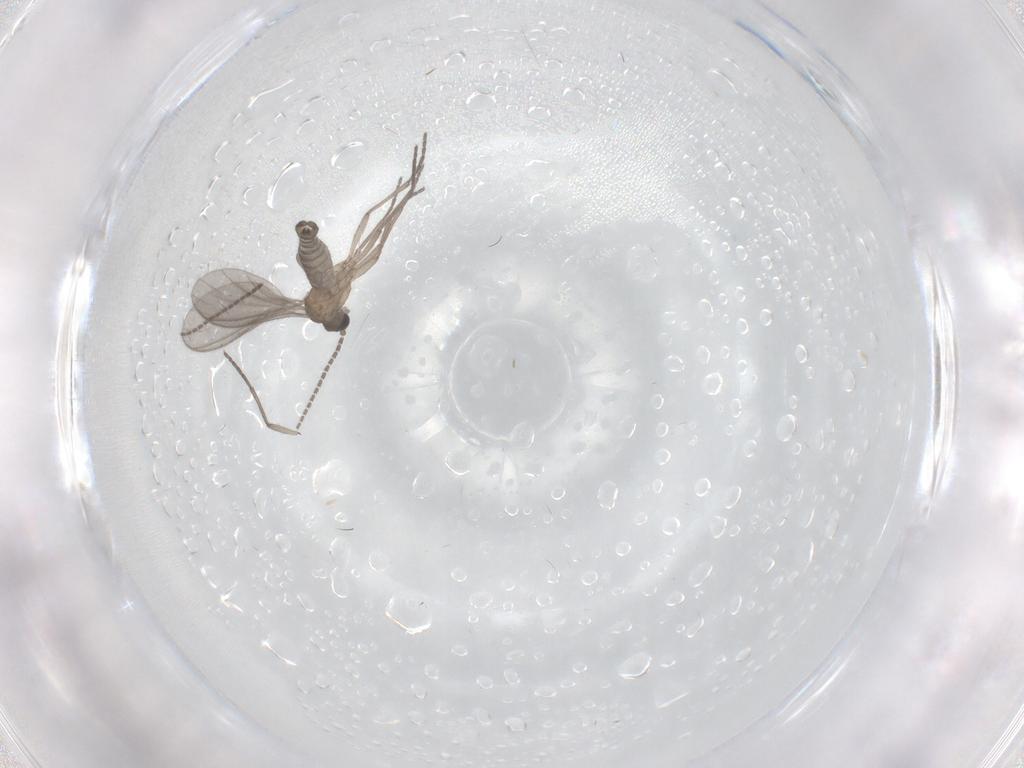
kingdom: Animalia
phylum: Arthropoda
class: Insecta
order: Diptera
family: Sciaridae
